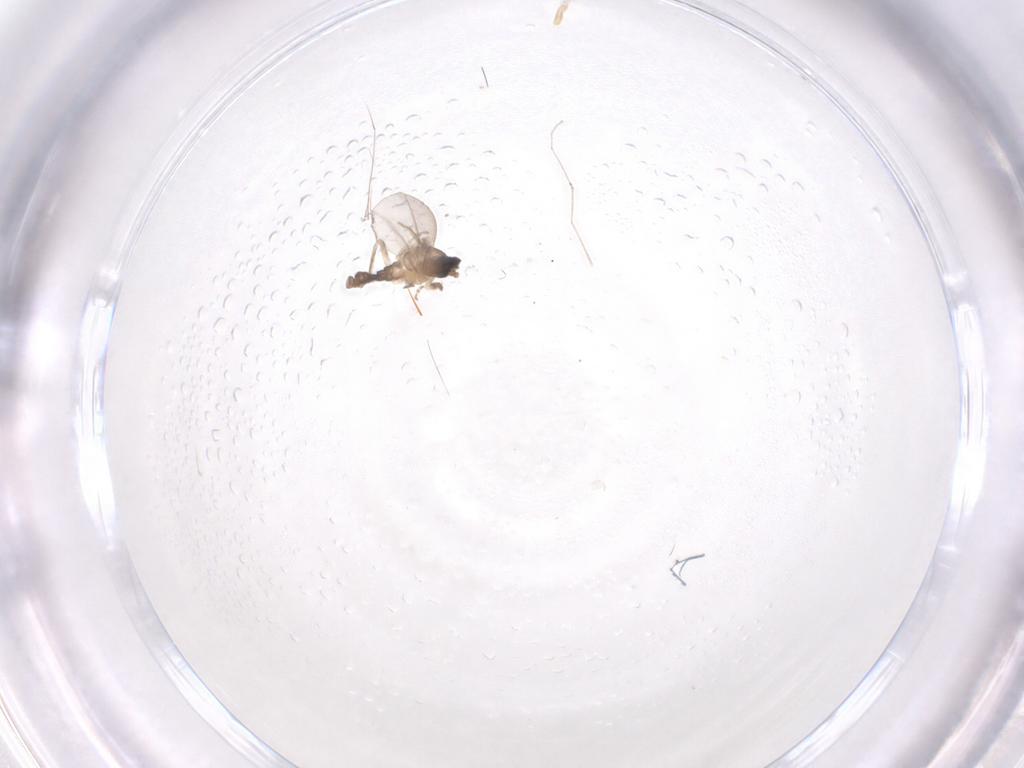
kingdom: Animalia
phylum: Arthropoda
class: Insecta
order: Diptera
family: Cecidomyiidae
